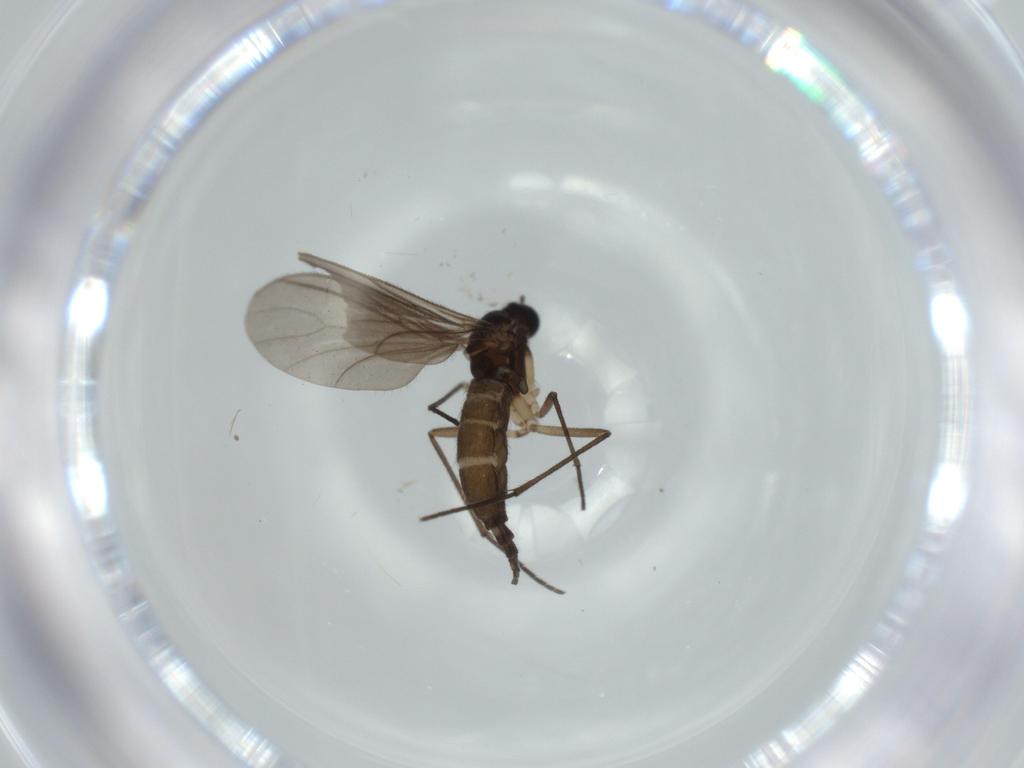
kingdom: Animalia
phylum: Arthropoda
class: Insecta
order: Diptera
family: Sciaridae
